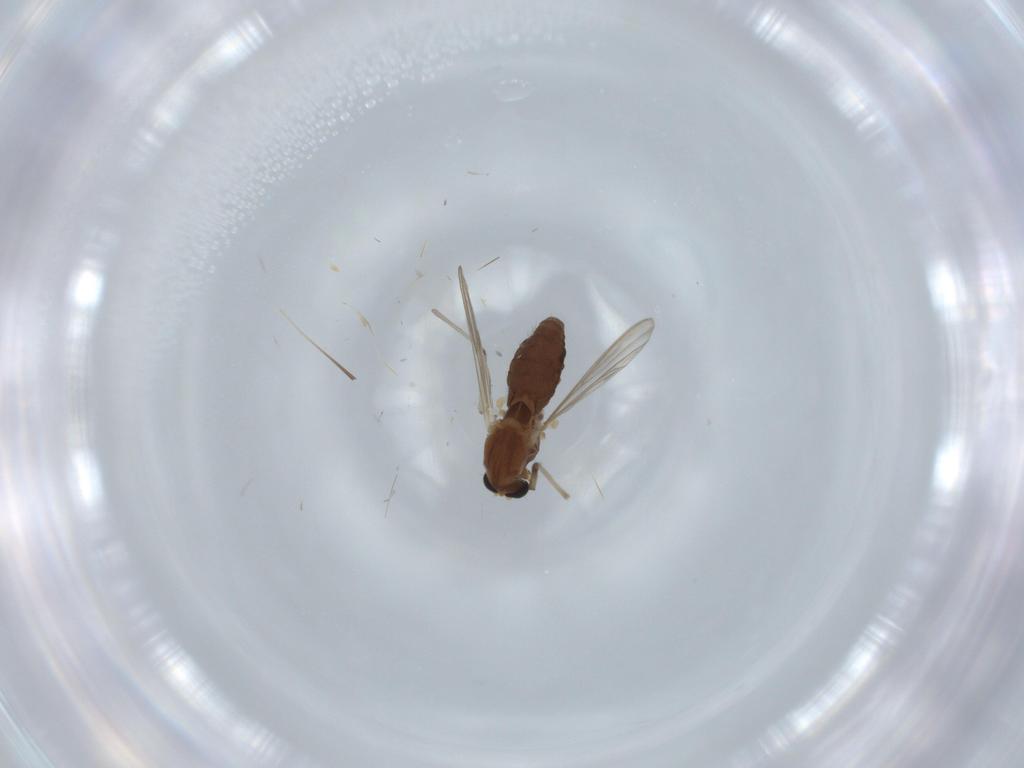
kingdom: Animalia
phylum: Arthropoda
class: Insecta
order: Diptera
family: Chironomidae
